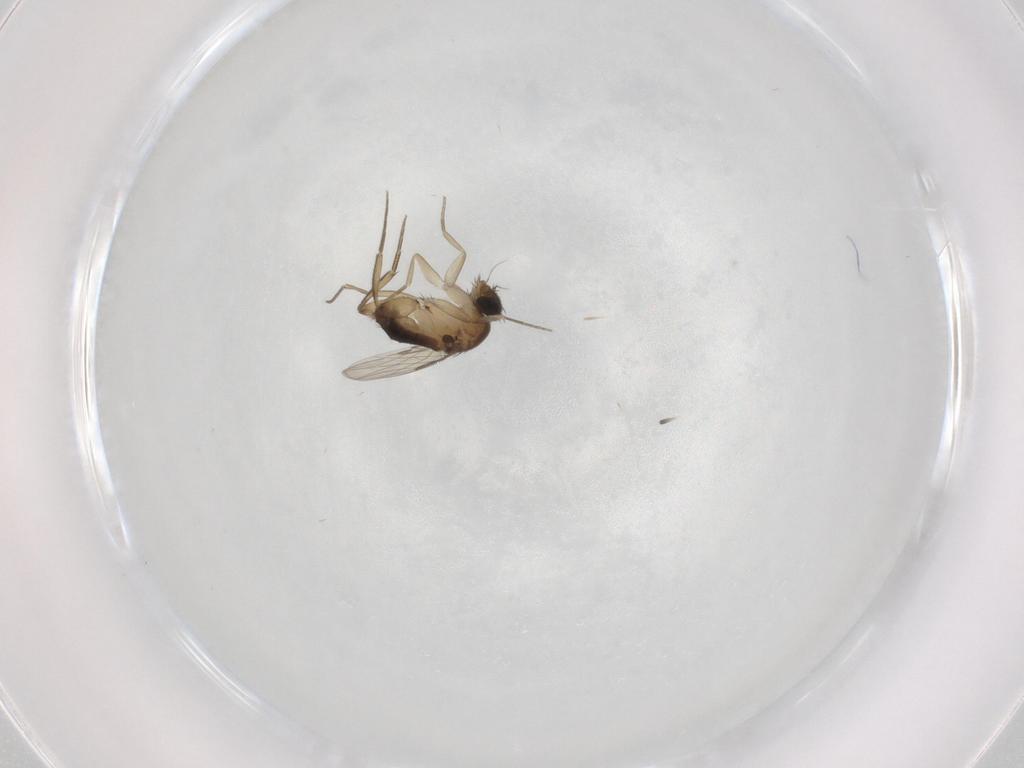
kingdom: Animalia
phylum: Arthropoda
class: Insecta
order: Diptera
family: Phoridae
